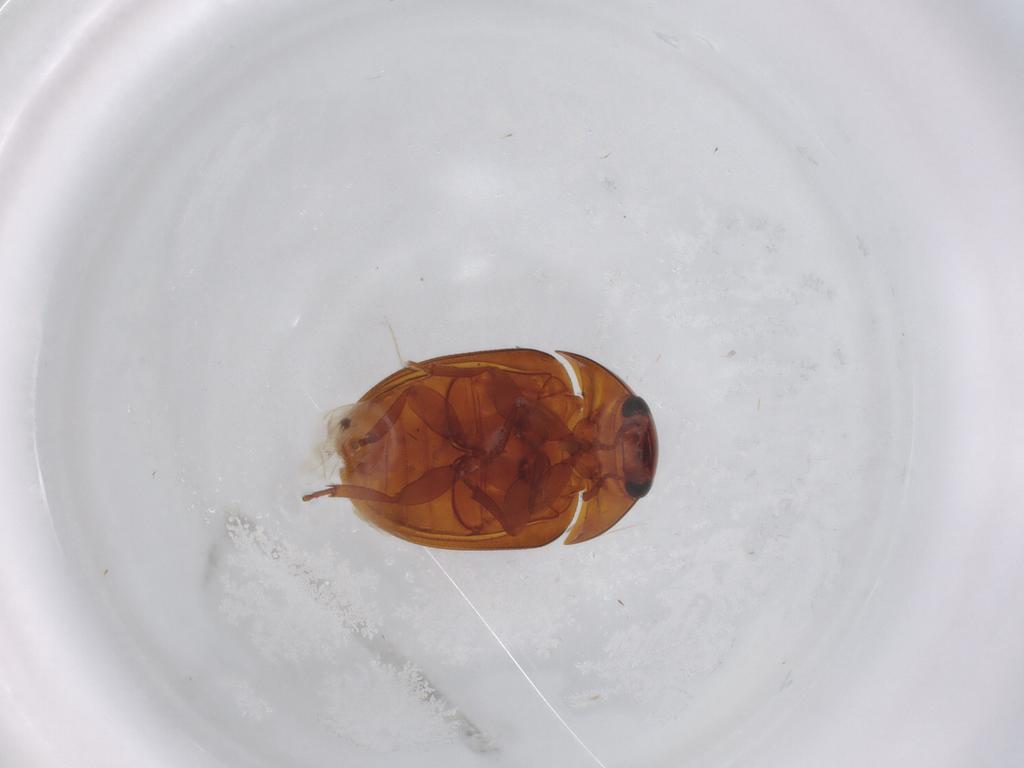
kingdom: Animalia
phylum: Arthropoda
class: Insecta
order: Coleoptera
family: Phalacridae
